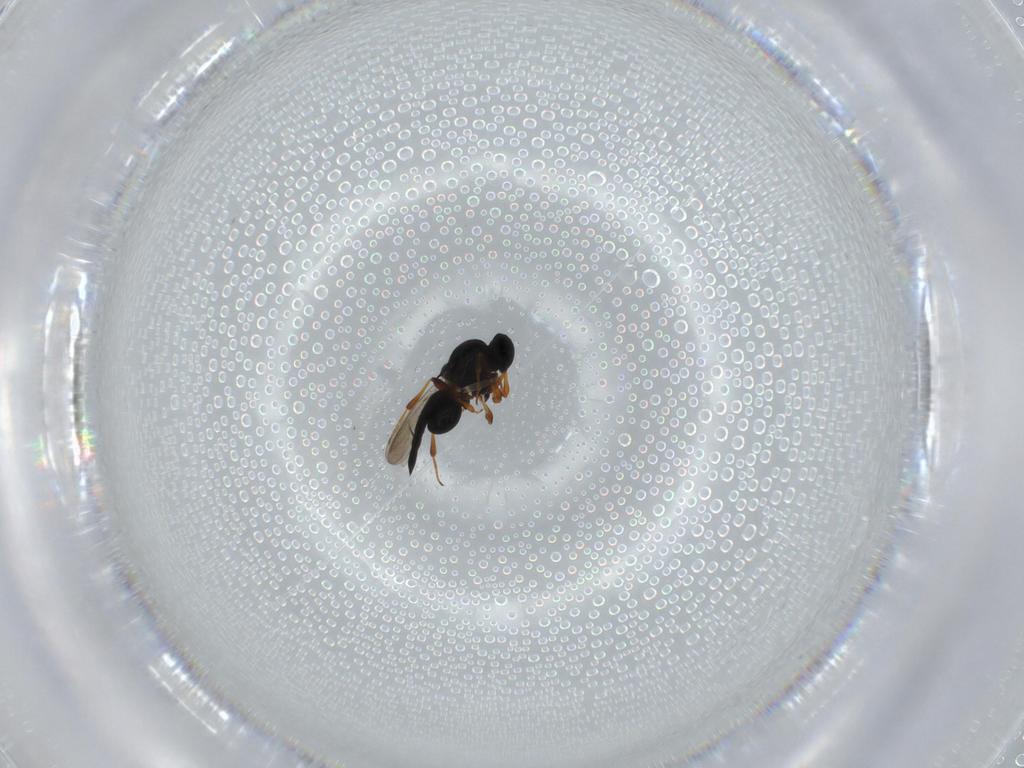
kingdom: Animalia
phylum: Arthropoda
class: Insecta
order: Hymenoptera
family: Platygastridae
